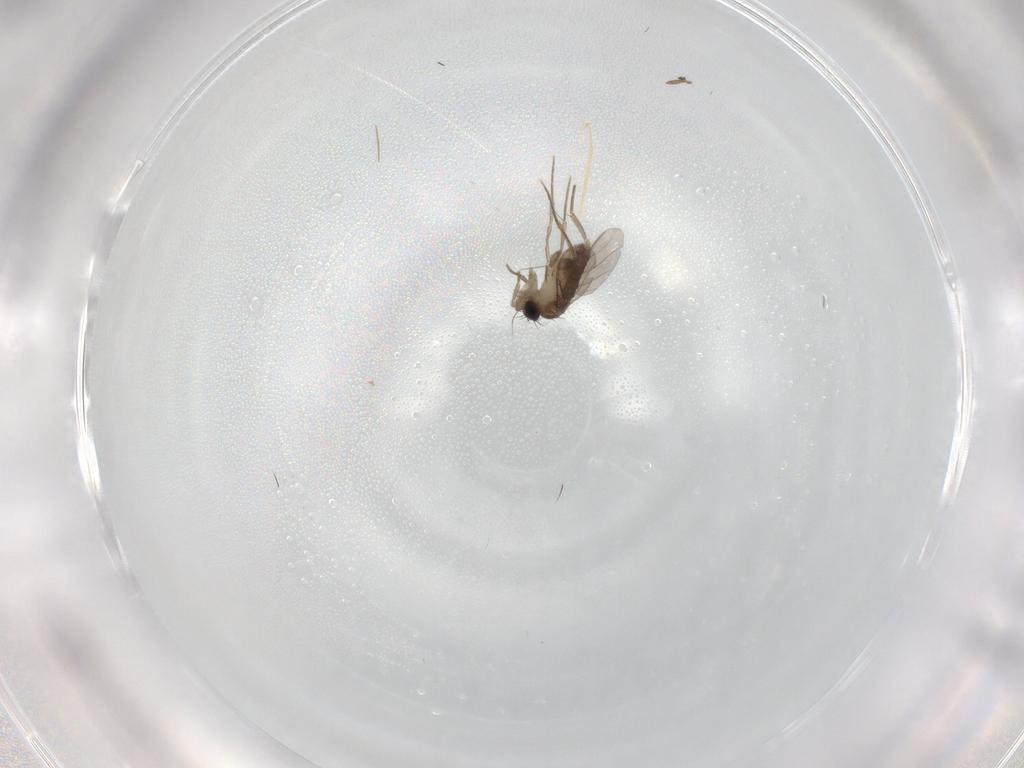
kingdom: Animalia
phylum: Arthropoda
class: Insecta
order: Diptera
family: Phoridae
